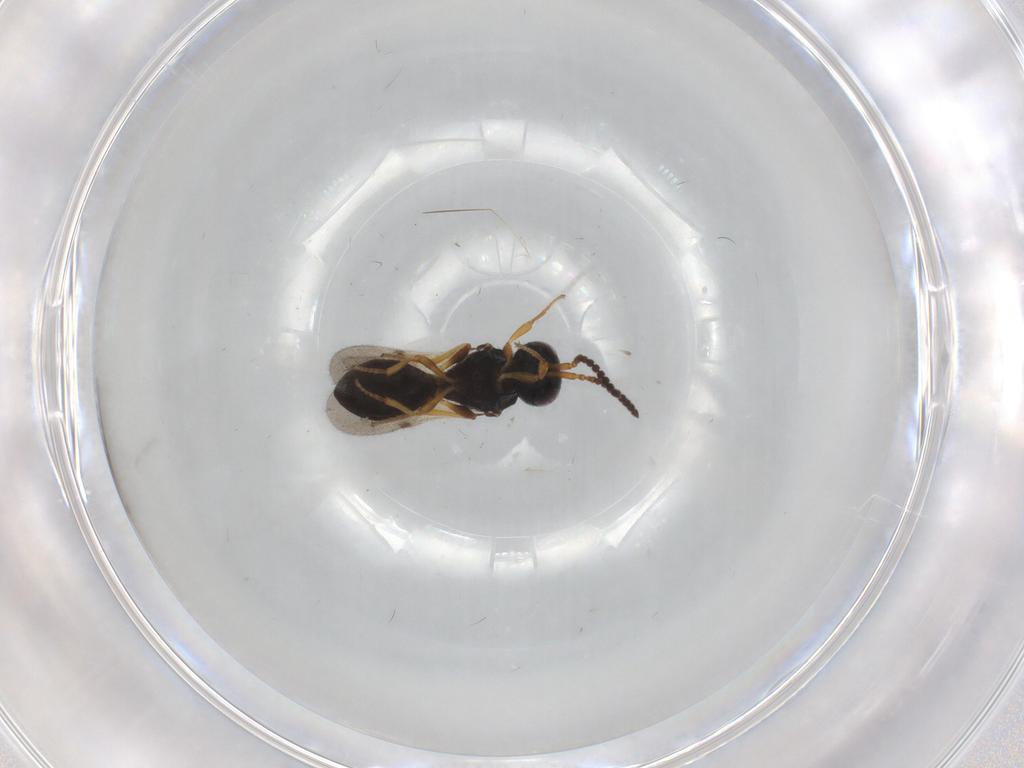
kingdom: Animalia
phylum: Arthropoda
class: Insecta
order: Hymenoptera
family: Scelionidae
